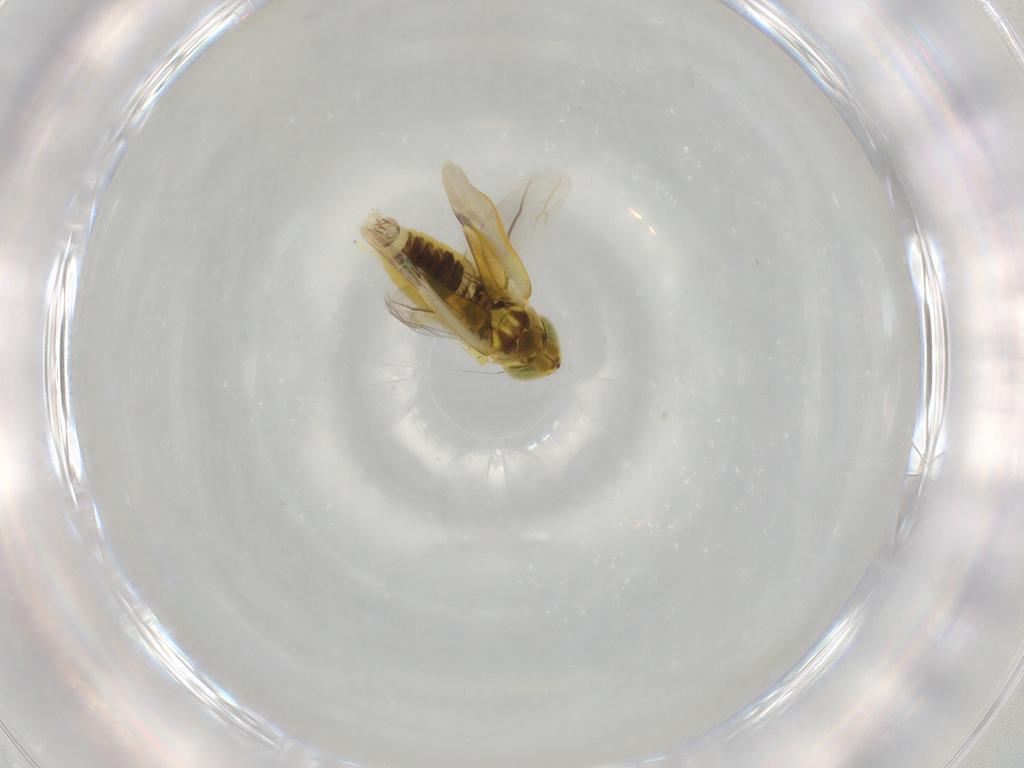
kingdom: Animalia
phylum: Arthropoda
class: Insecta
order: Hemiptera
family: Cicadellidae
